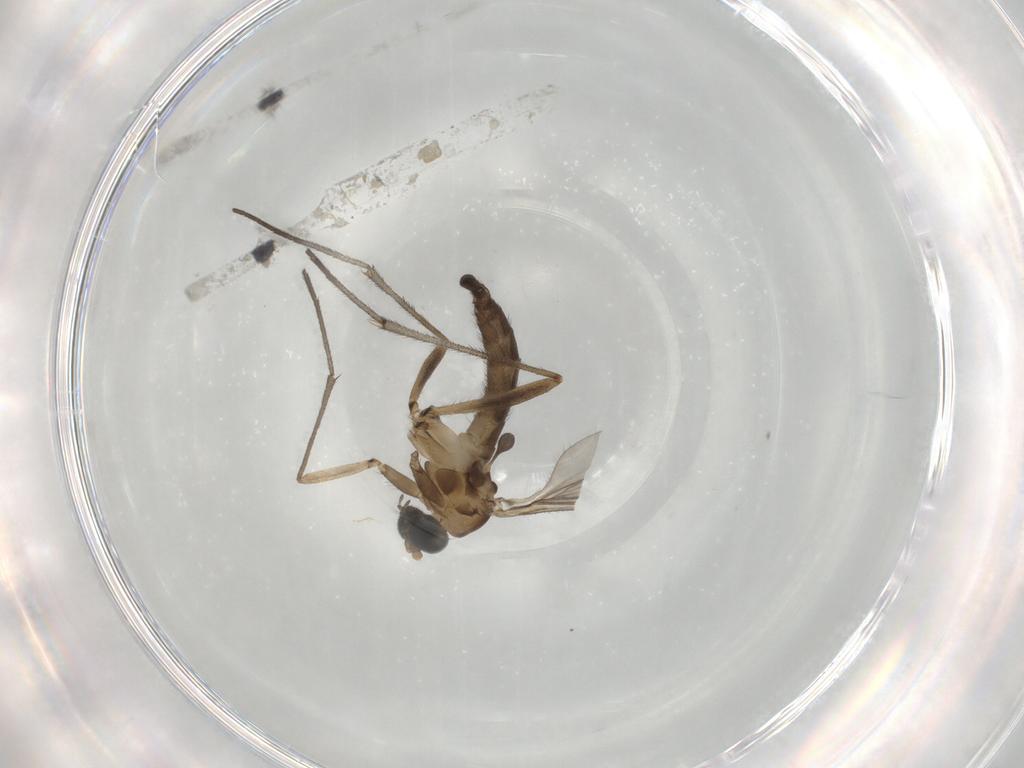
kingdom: Animalia
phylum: Arthropoda
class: Insecta
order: Diptera
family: Sciaridae
